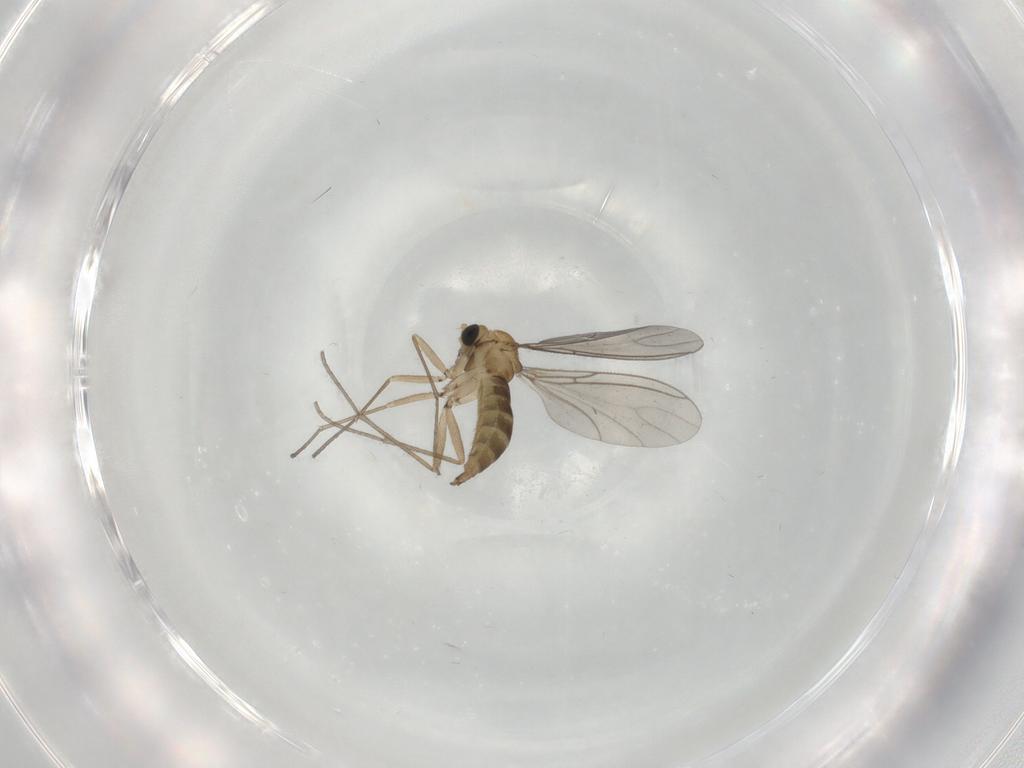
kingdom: Animalia
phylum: Arthropoda
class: Insecta
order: Diptera
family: Sciaridae
